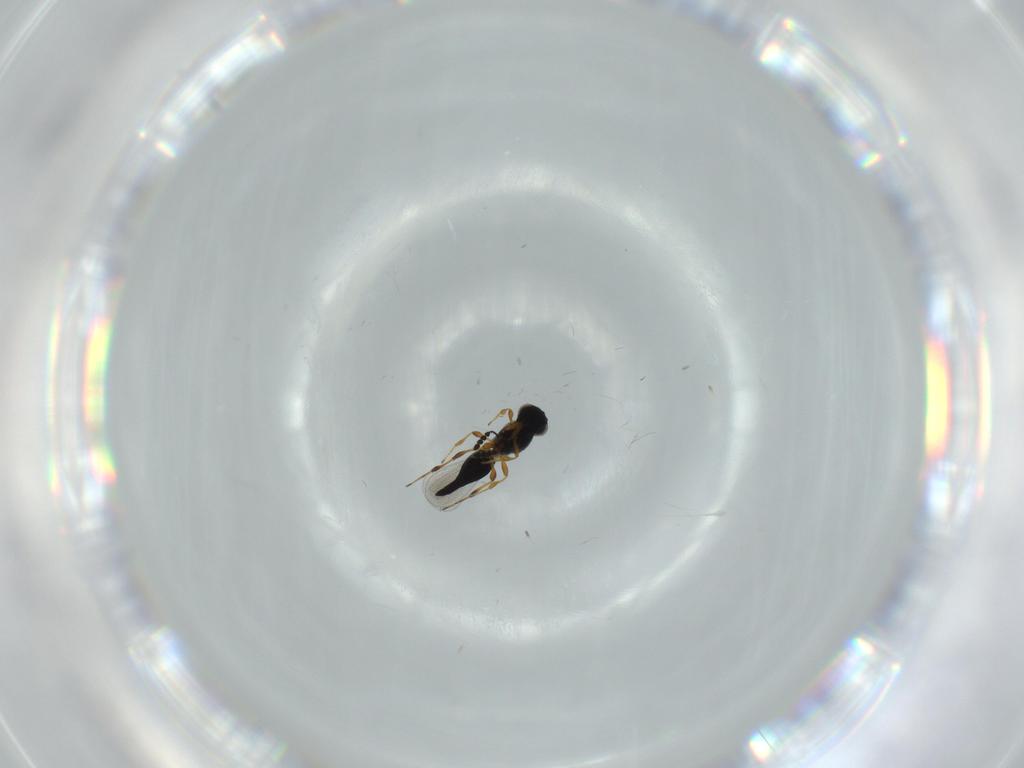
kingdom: Animalia
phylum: Arthropoda
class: Insecta
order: Hymenoptera
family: Platygastridae
